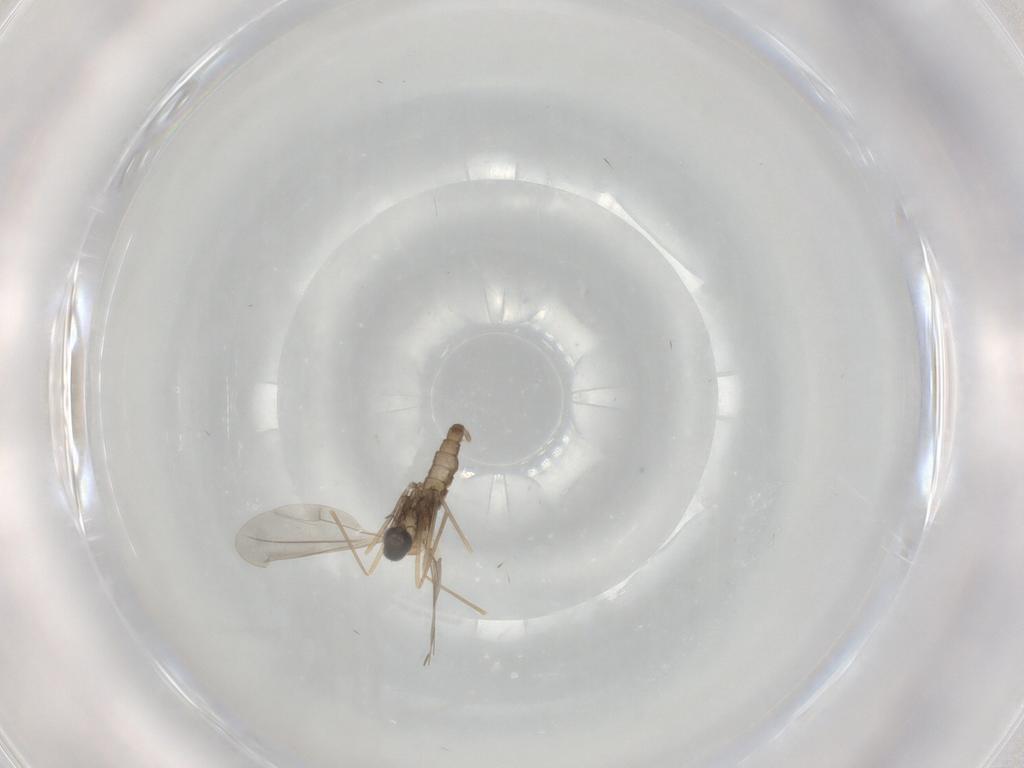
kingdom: Animalia
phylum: Arthropoda
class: Insecta
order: Diptera
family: Cecidomyiidae
